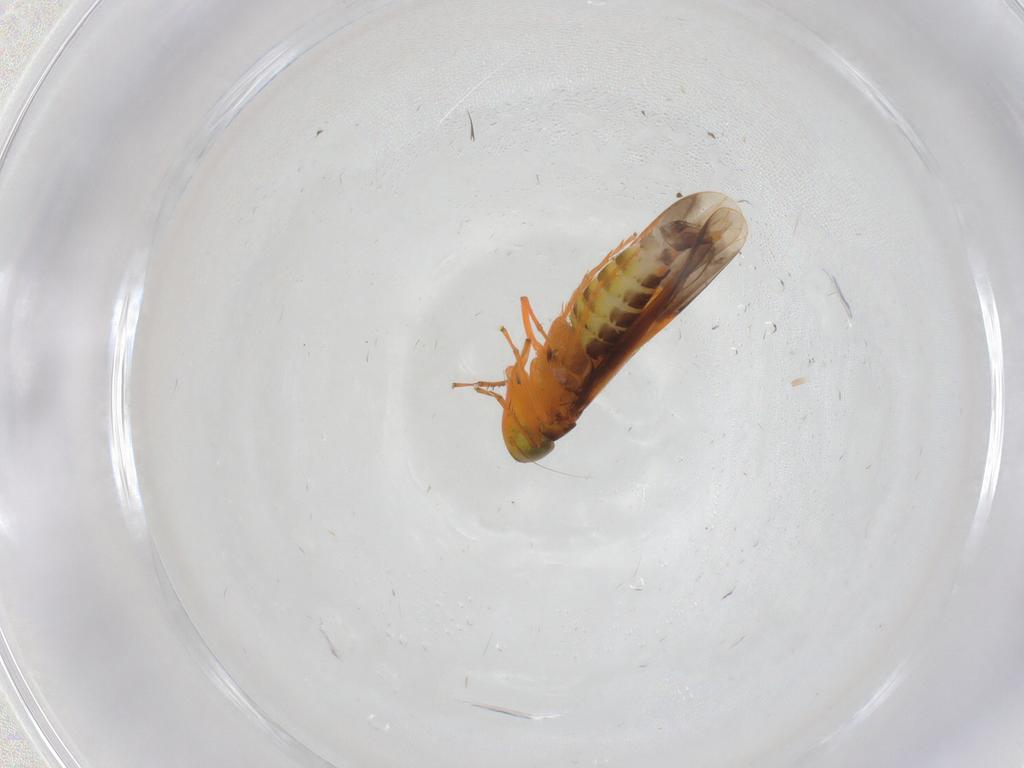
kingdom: Animalia
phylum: Arthropoda
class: Insecta
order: Hemiptera
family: Cicadellidae
